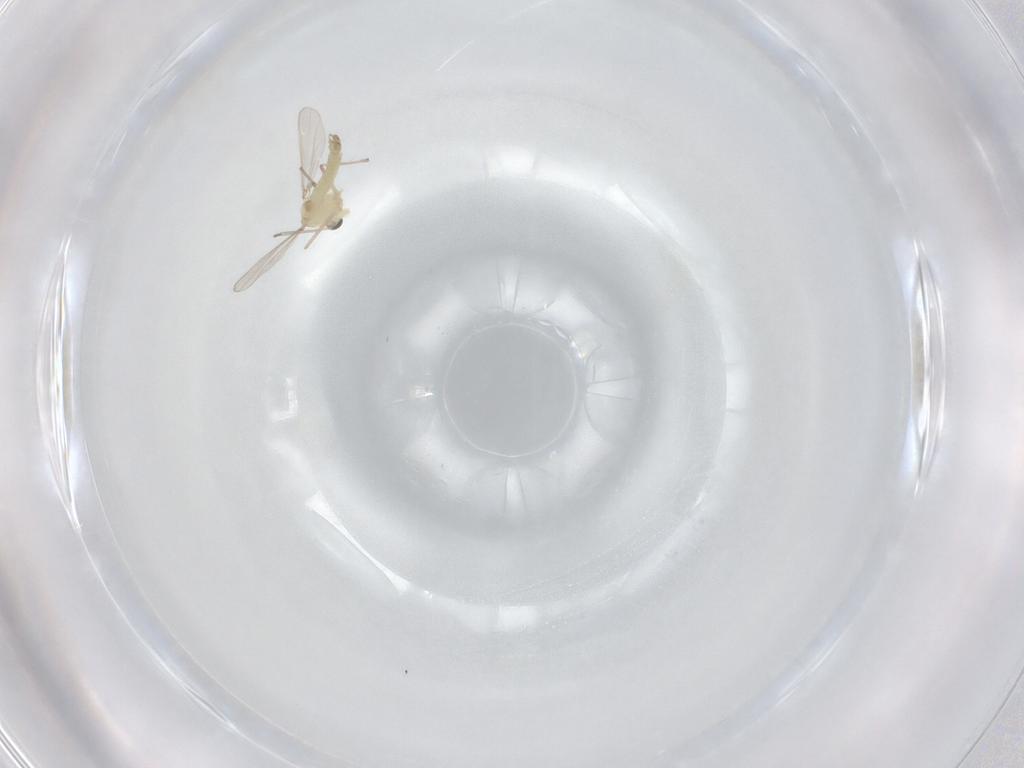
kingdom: Animalia
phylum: Arthropoda
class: Insecta
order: Diptera
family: Chironomidae
